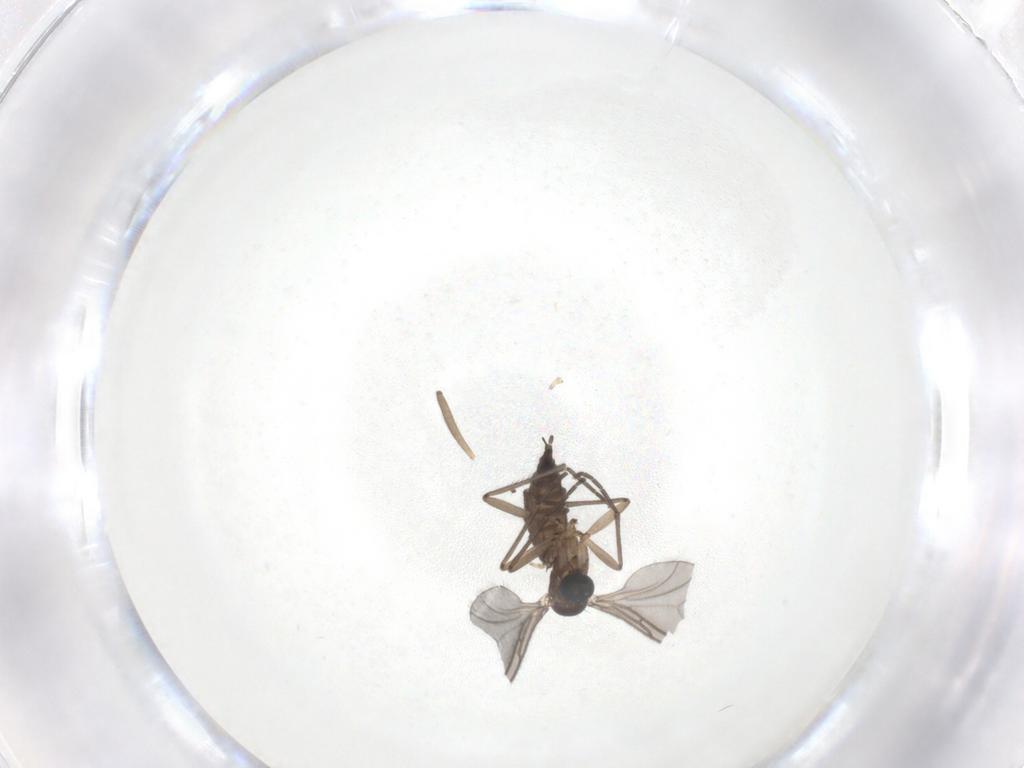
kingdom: Animalia
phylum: Arthropoda
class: Insecta
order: Diptera
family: Sciaridae
